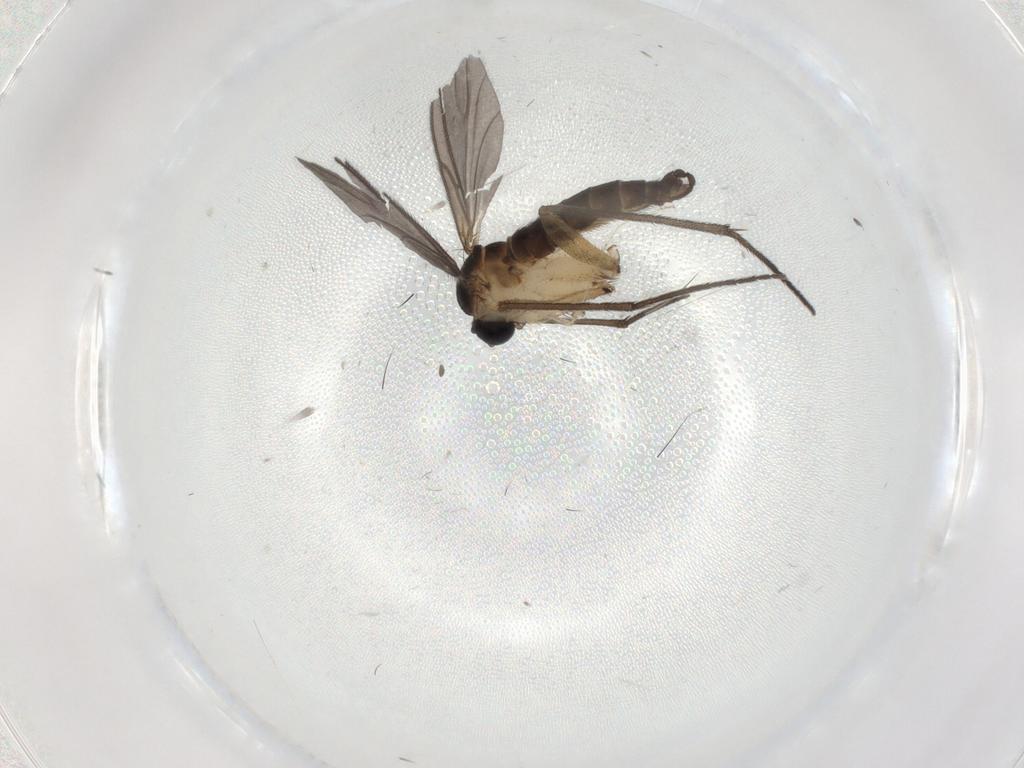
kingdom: Animalia
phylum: Arthropoda
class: Insecta
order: Diptera
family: Sciaridae
